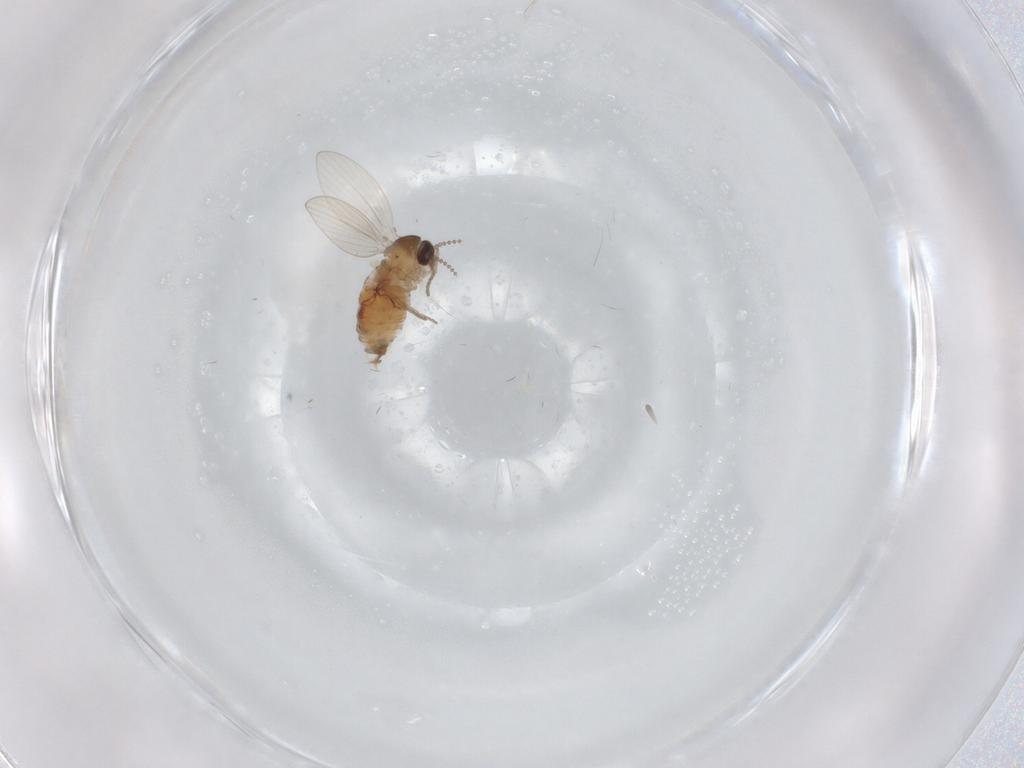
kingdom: Animalia
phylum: Arthropoda
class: Insecta
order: Diptera
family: Psychodidae
